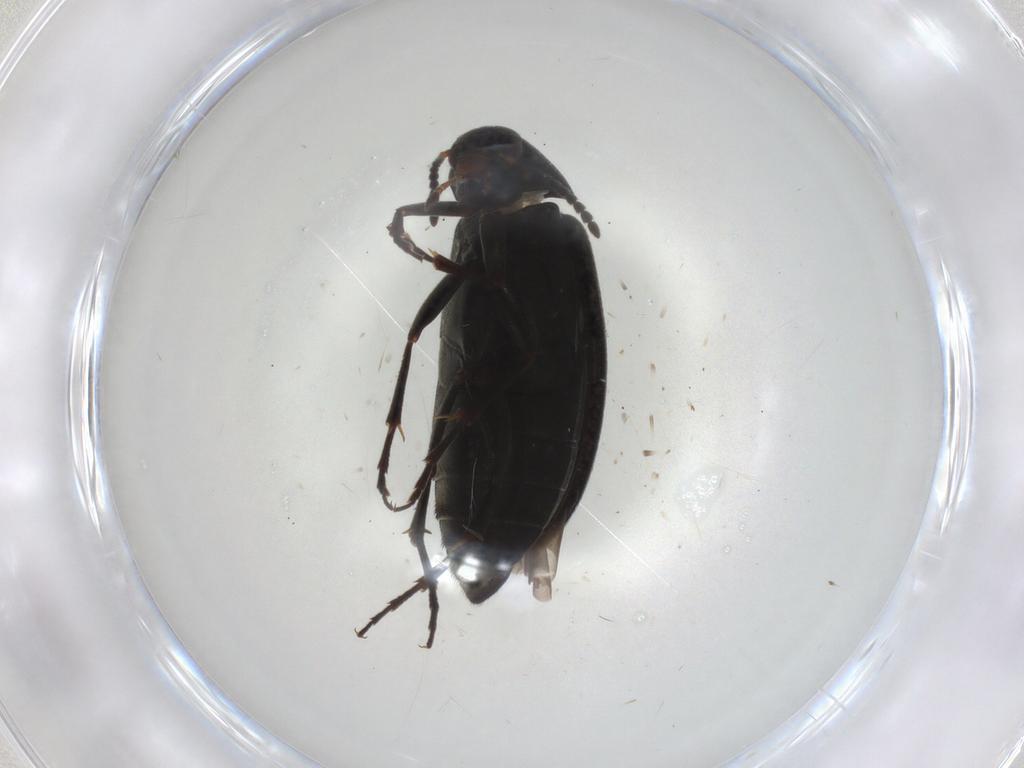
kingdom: Animalia
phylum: Arthropoda
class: Insecta
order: Coleoptera
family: Scraptiidae
